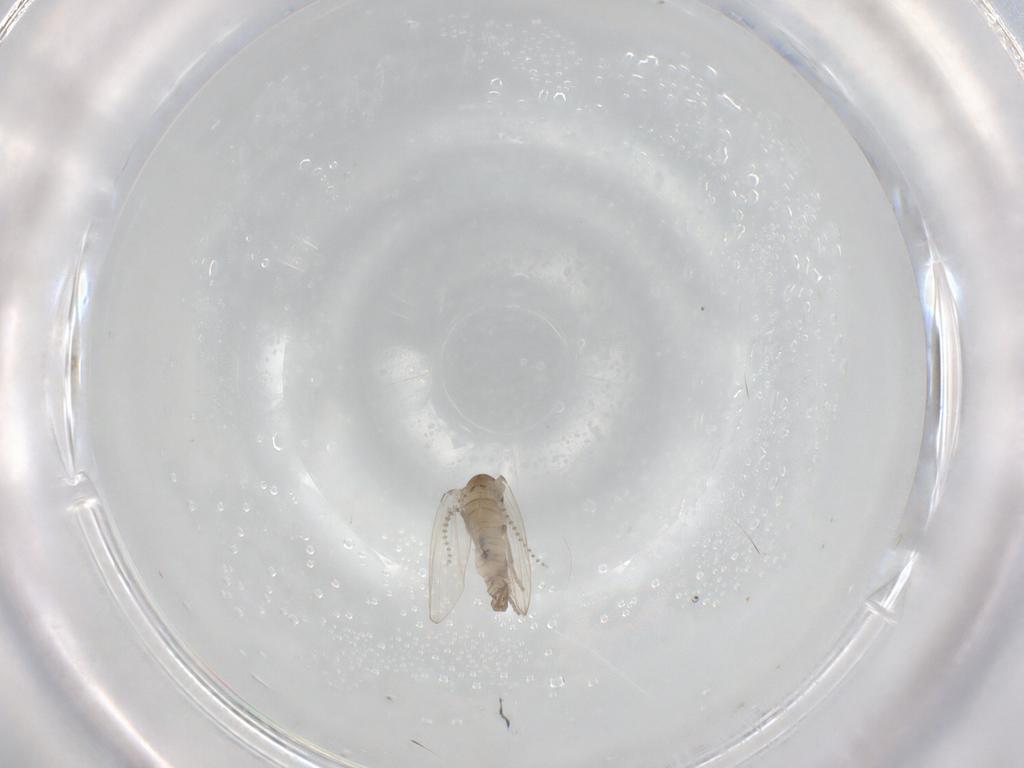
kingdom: Animalia
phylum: Arthropoda
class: Insecta
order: Diptera
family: Psychodidae
